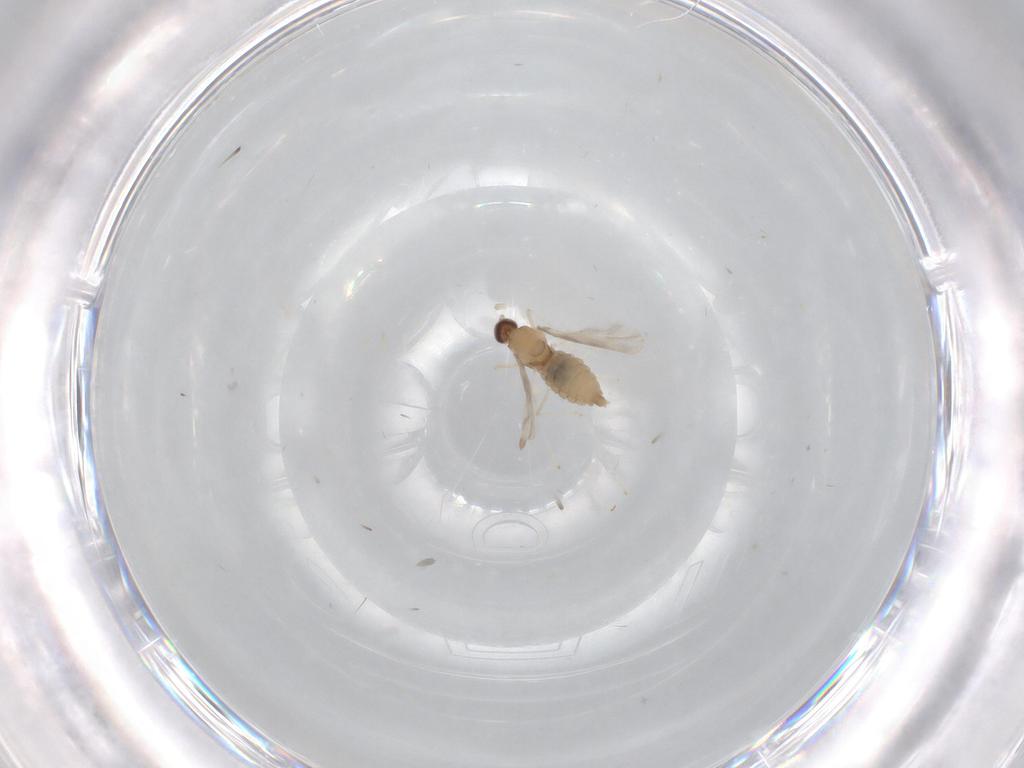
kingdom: Animalia
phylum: Arthropoda
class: Insecta
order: Diptera
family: Cecidomyiidae
